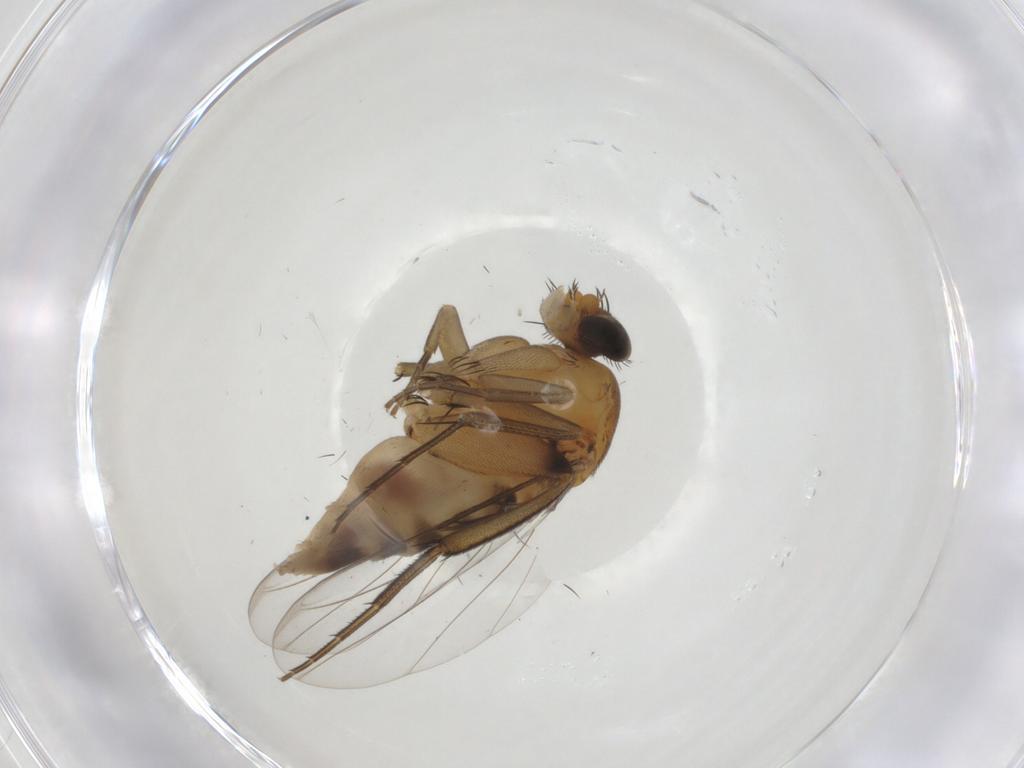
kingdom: Animalia
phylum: Arthropoda
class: Insecta
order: Diptera
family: Phoridae
